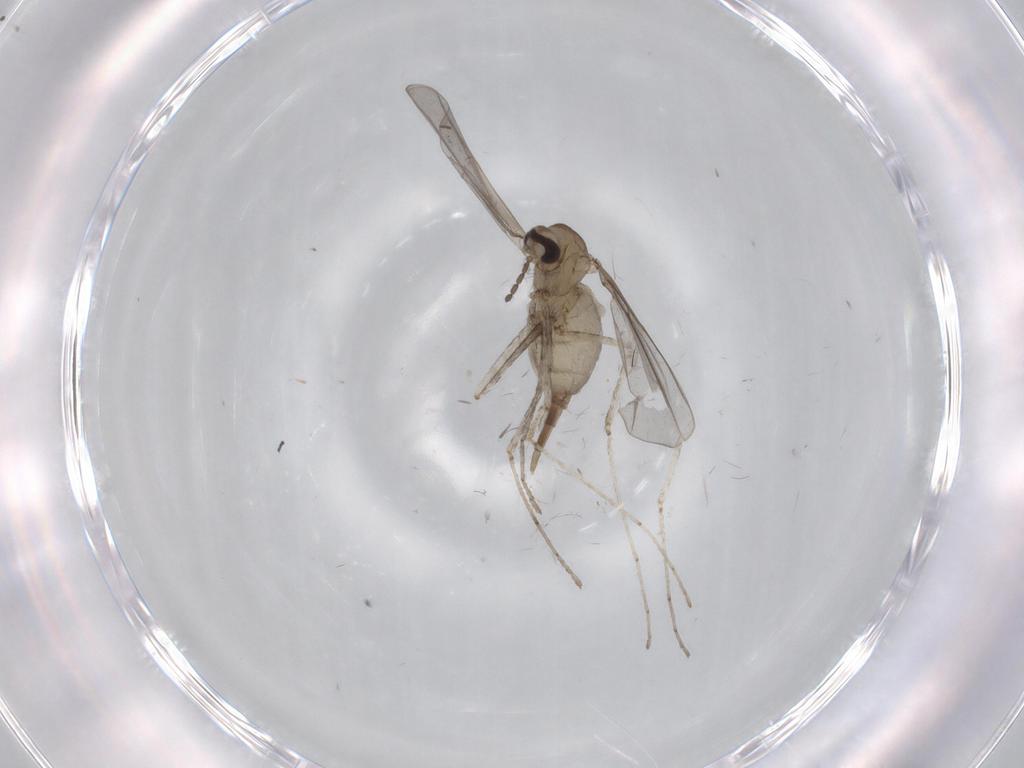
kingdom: Animalia
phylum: Arthropoda
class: Insecta
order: Diptera
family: Cecidomyiidae
